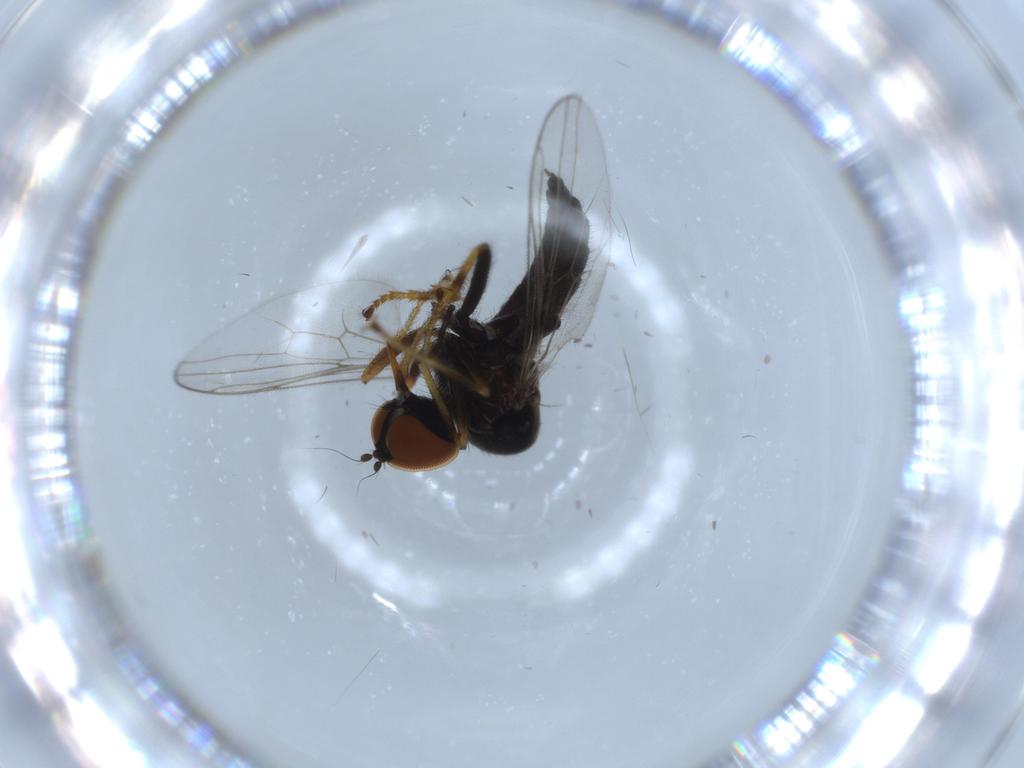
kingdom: Animalia
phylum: Arthropoda
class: Insecta
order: Diptera
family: Hybotidae
